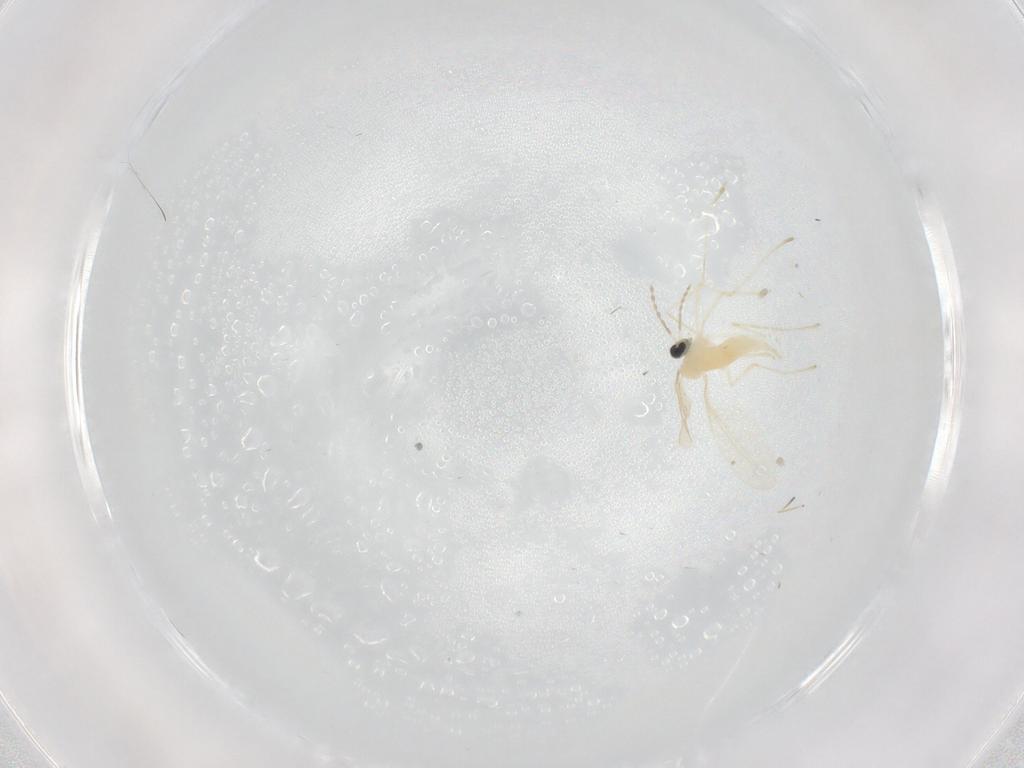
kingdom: Animalia
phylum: Arthropoda
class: Insecta
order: Diptera
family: Cecidomyiidae
